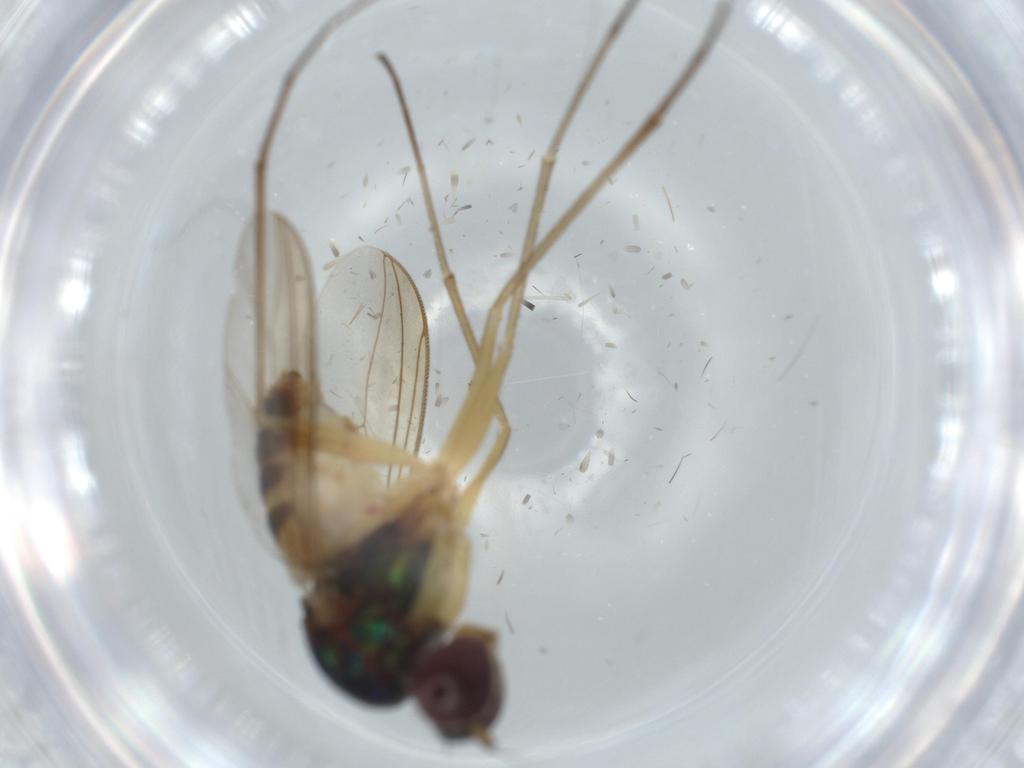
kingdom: Animalia
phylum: Arthropoda
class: Insecta
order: Diptera
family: Dolichopodidae
